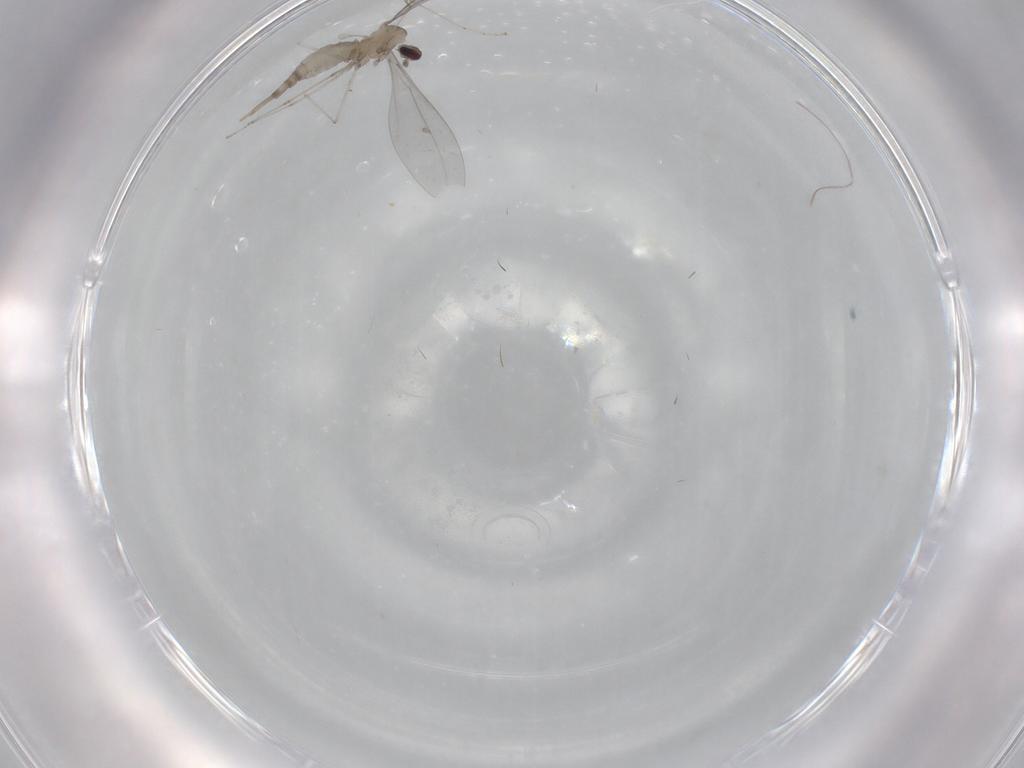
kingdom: Animalia
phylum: Arthropoda
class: Insecta
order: Diptera
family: Cecidomyiidae
